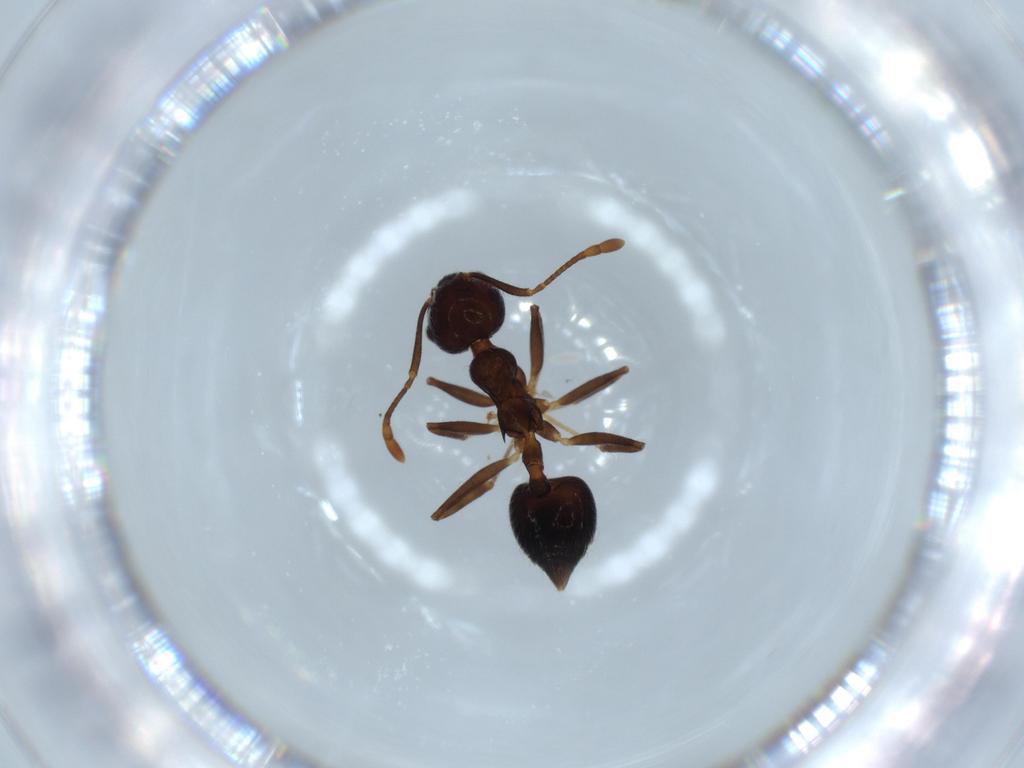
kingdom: Animalia
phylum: Arthropoda
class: Insecta
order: Hymenoptera
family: Formicidae
